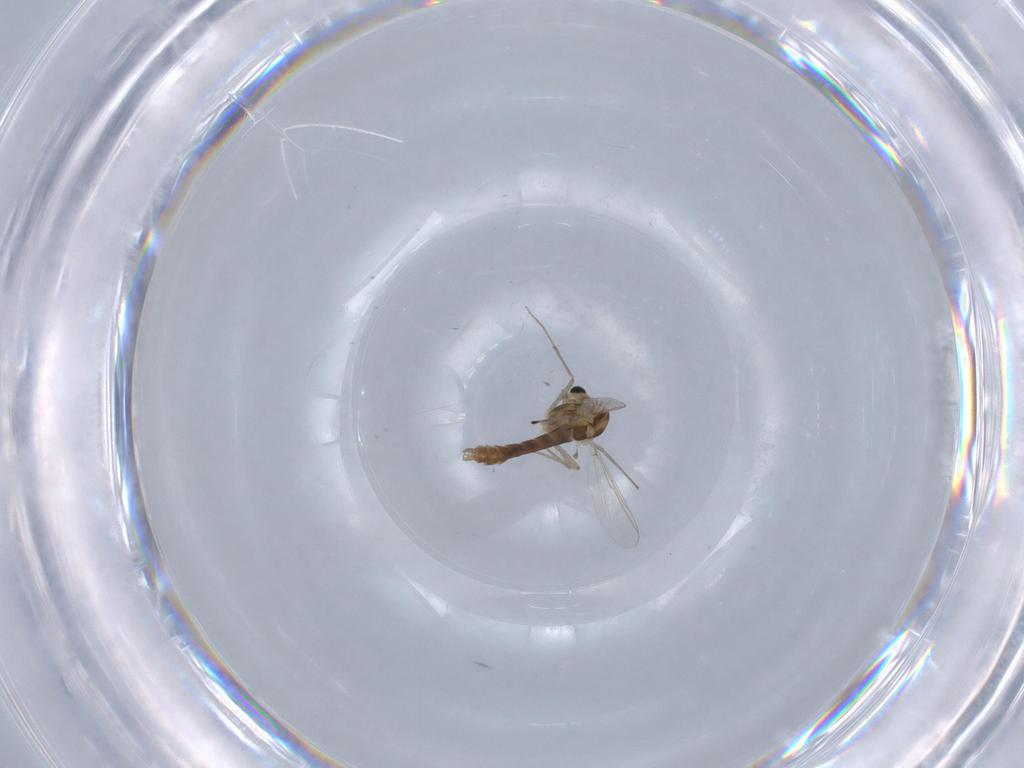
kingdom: Animalia
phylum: Arthropoda
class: Insecta
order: Diptera
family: Chironomidae
